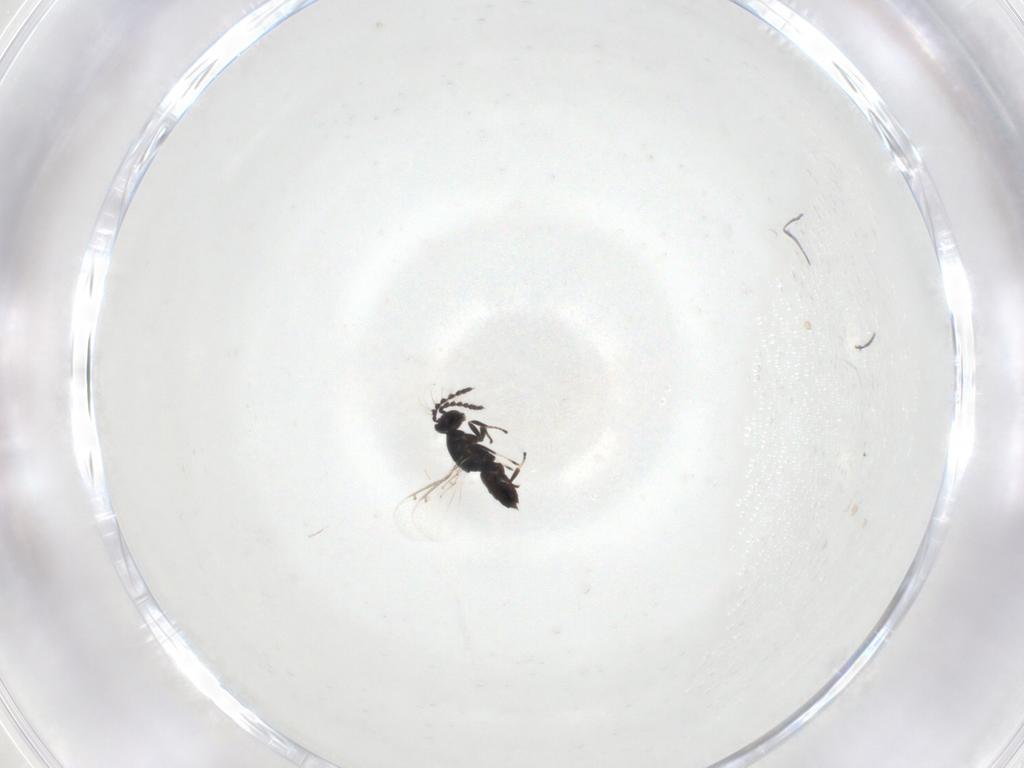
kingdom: Animalia
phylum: Arthropoda
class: Insecta
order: Hymenoptera
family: Eulophidae
